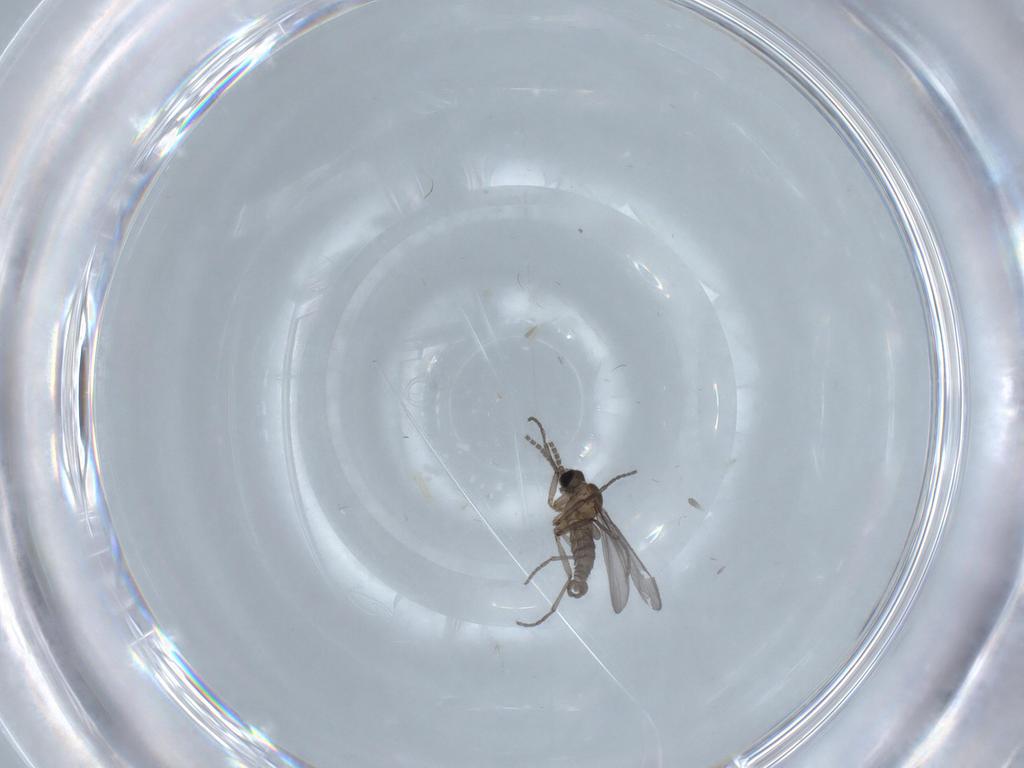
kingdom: Animalia
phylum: Arthropoda
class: Insecta
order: Diptera
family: Sciaridae
